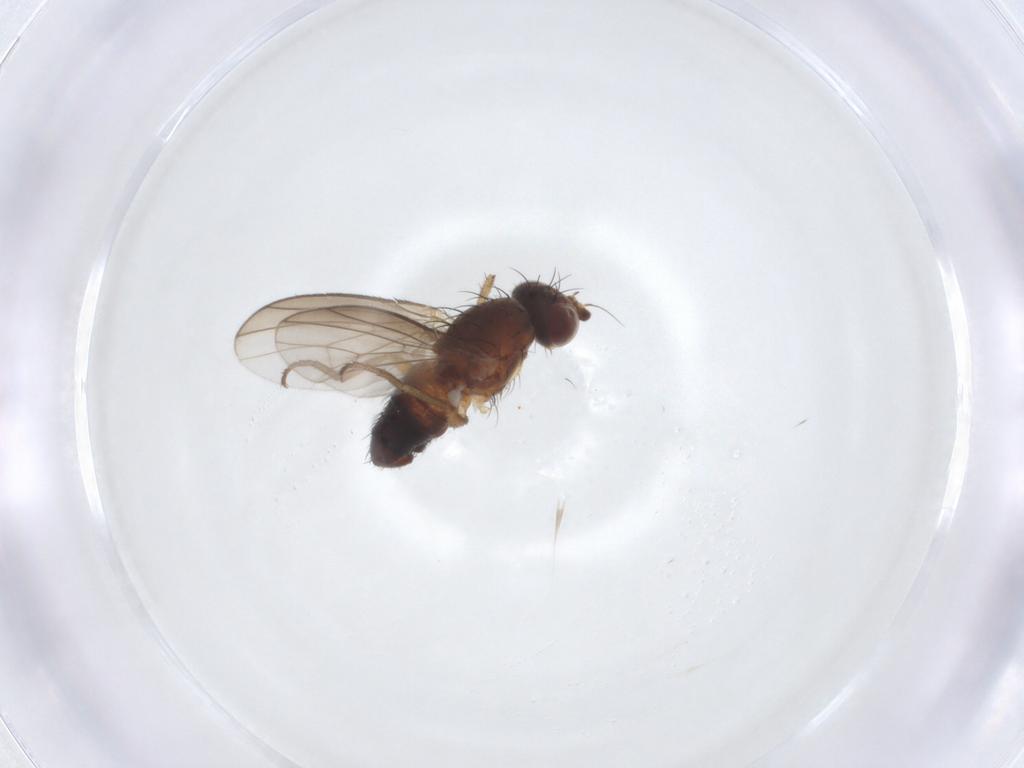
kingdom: Animalia
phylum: Arthropoda
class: Insecta
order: Diptera
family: Heleomyzidae
